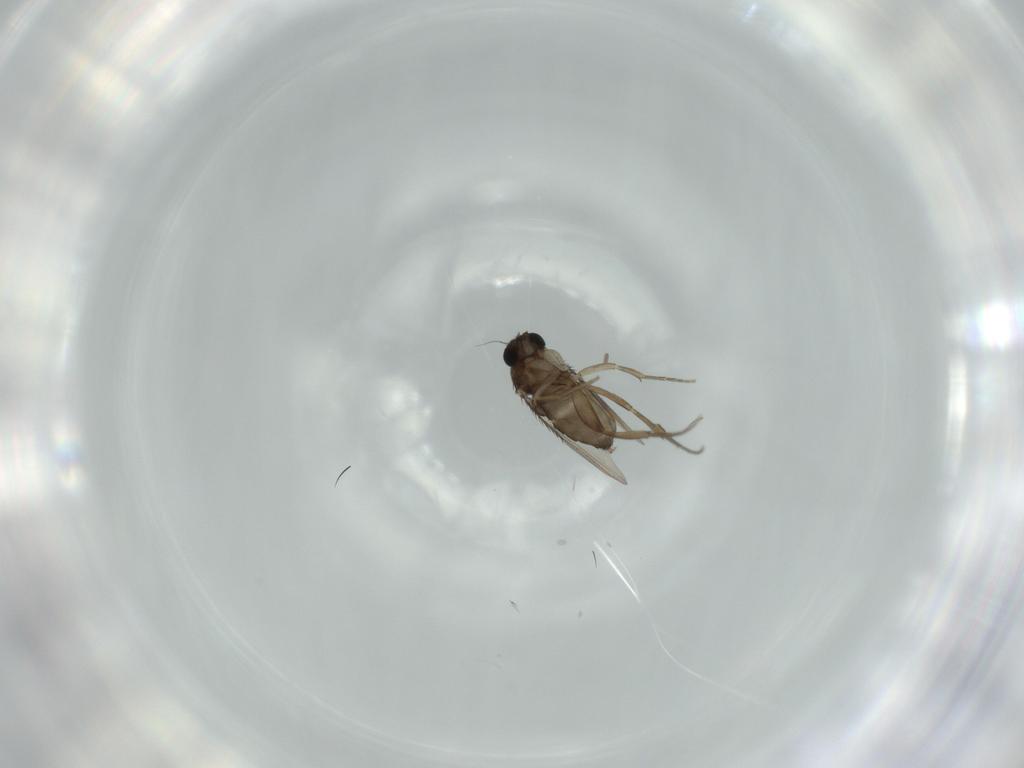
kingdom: Animalia
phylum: Arthropoda
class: Insecta
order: Diptera
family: Phoridae
